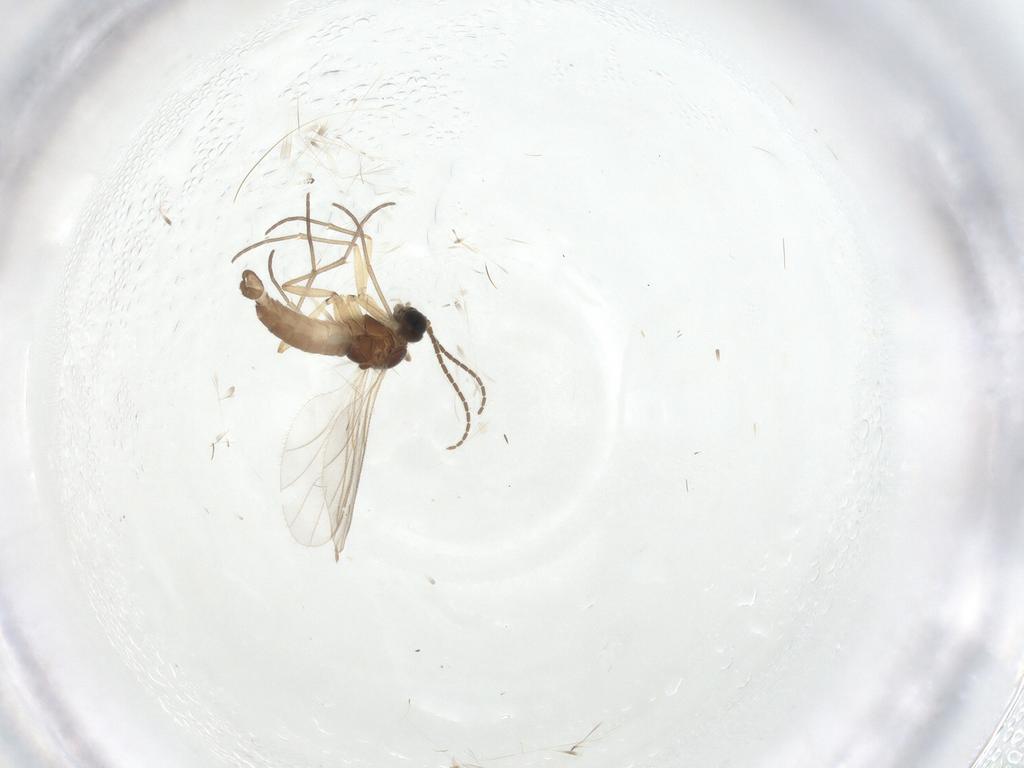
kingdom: Animalia
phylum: Arthropoda
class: Insecta
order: Diptera
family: Sciaridae
